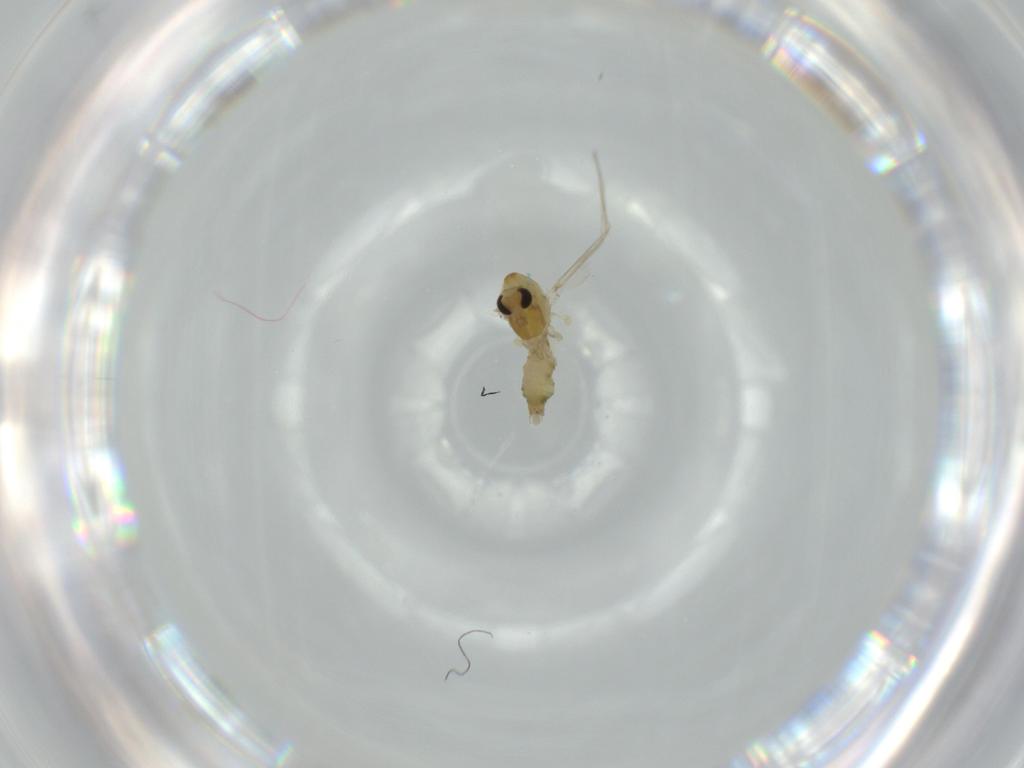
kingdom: Animalia
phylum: Arthropoda
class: Insecta
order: Diptera
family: Chironomidae
